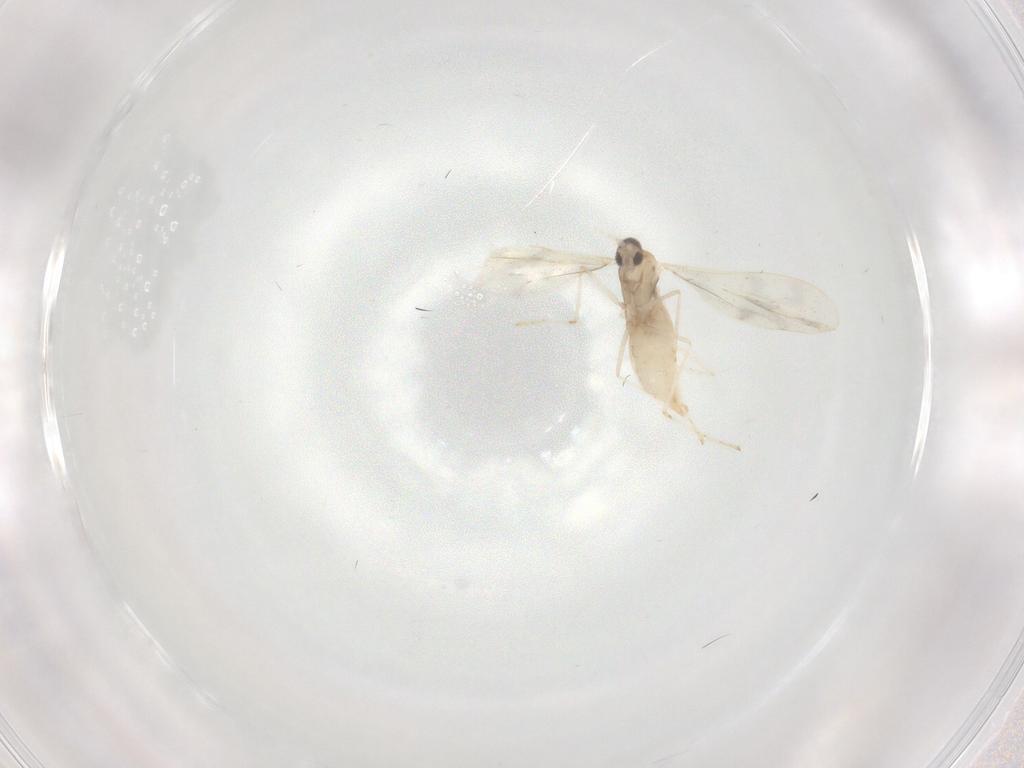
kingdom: Animalia
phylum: Arthropoda
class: Insecta
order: Diptera
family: Cecidomyiidae
